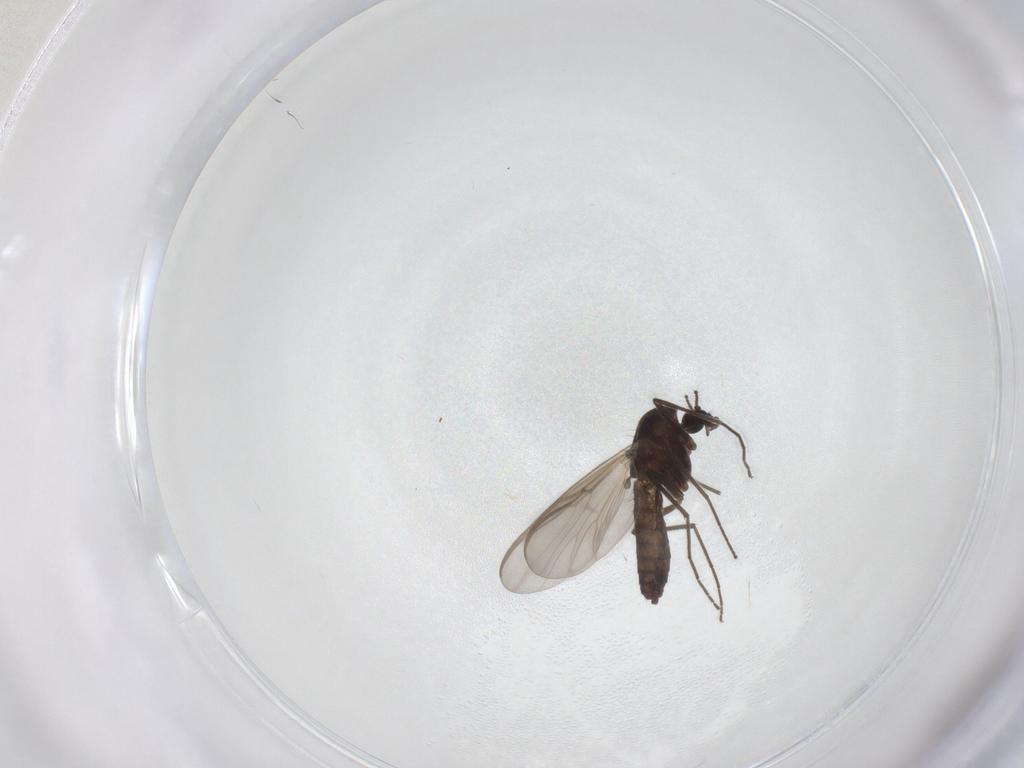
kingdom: Animalia
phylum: Arthropoda
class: Insecta
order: Diptera
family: Chironomidae
